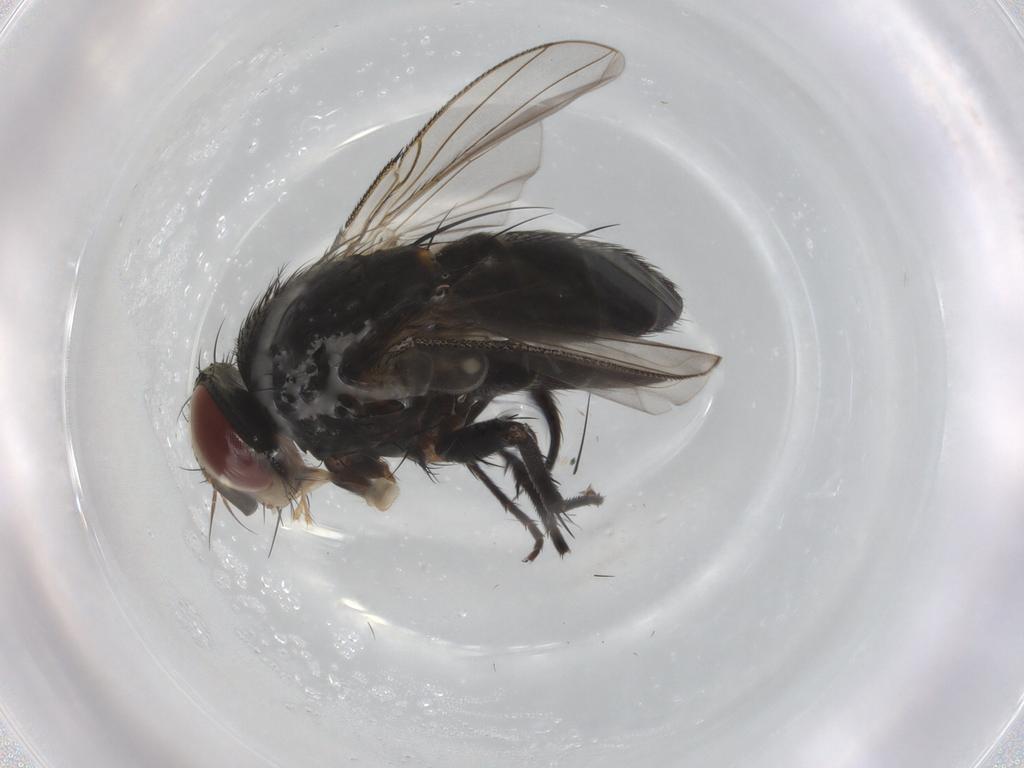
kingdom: Animalia
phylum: Arthropoda
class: Insecta
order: Diptera
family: Tachinidae
